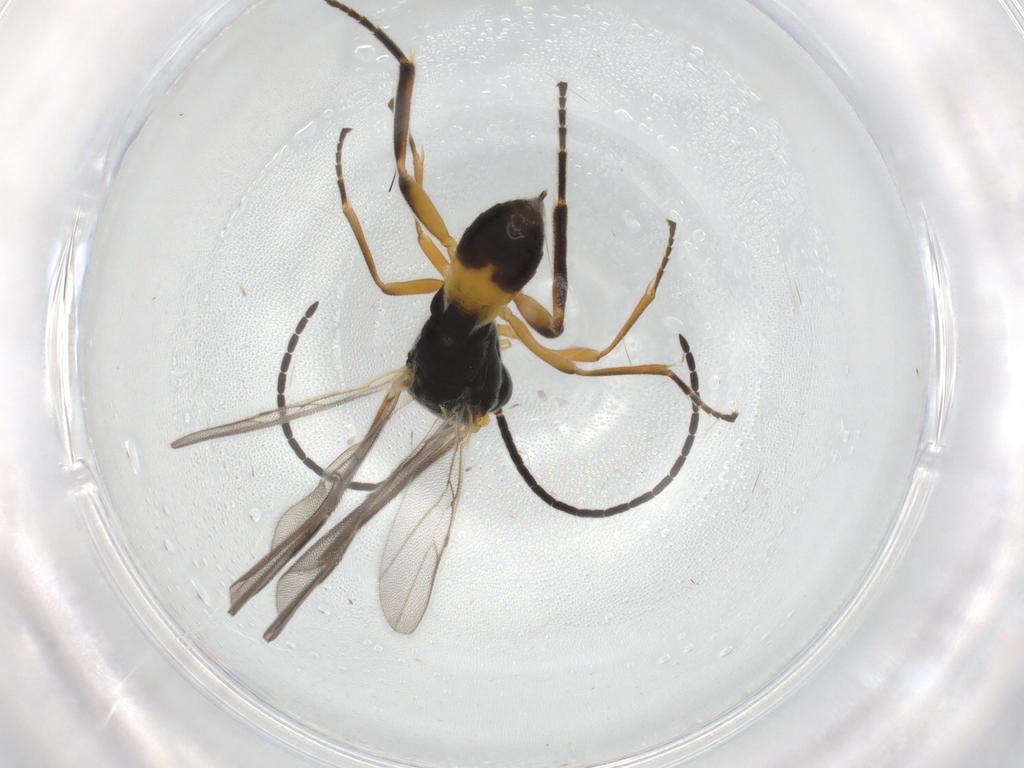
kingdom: Animalia
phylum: Arthropoda
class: Insecta
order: Hymenoptera
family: Braconidae
